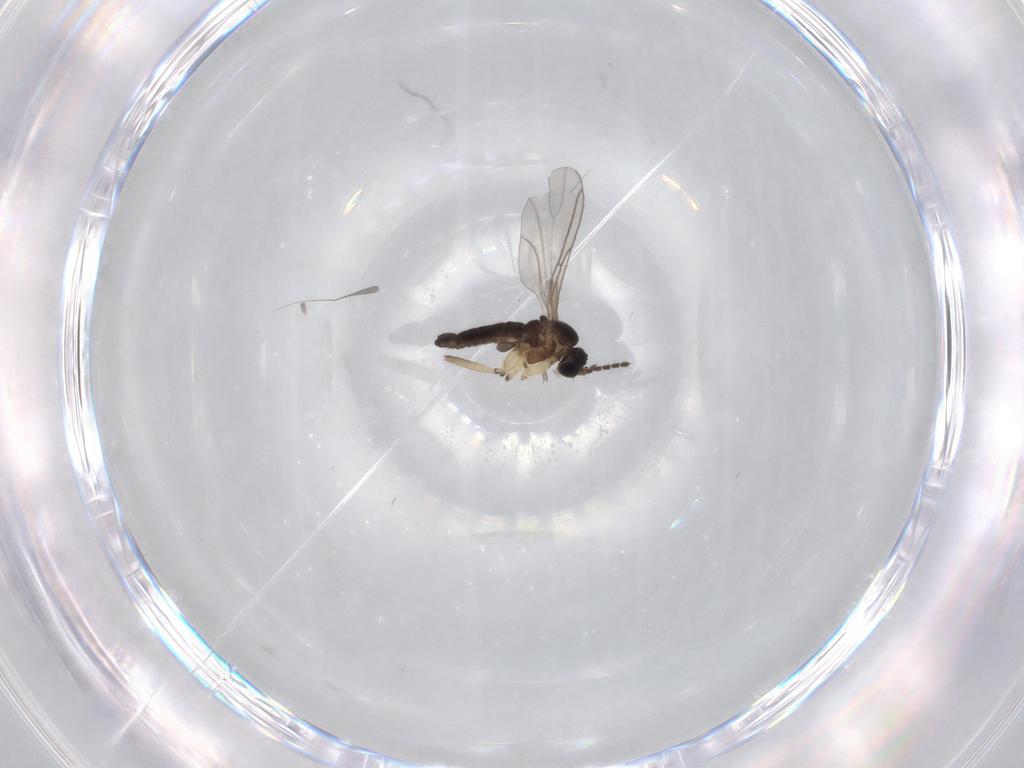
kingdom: Animalia
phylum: Arthropoda
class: Insecta
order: Diptera
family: Sciaridae
